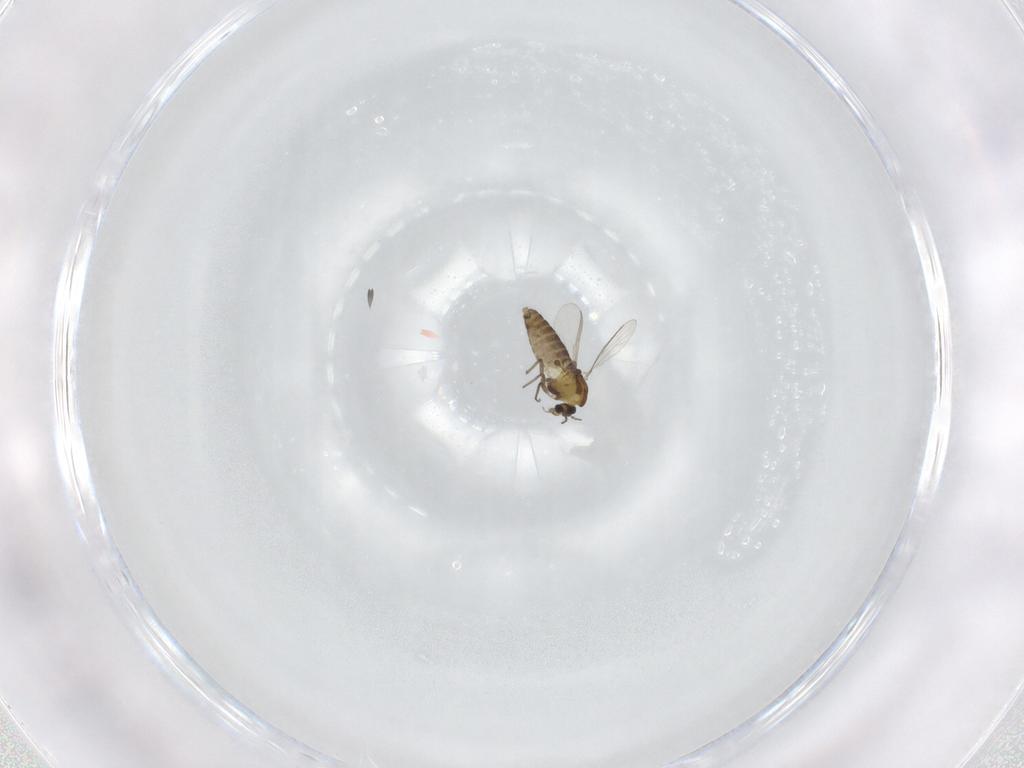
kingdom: Animalia
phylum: Arthropoda
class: Insecta
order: Diptera
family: Chironomidae
